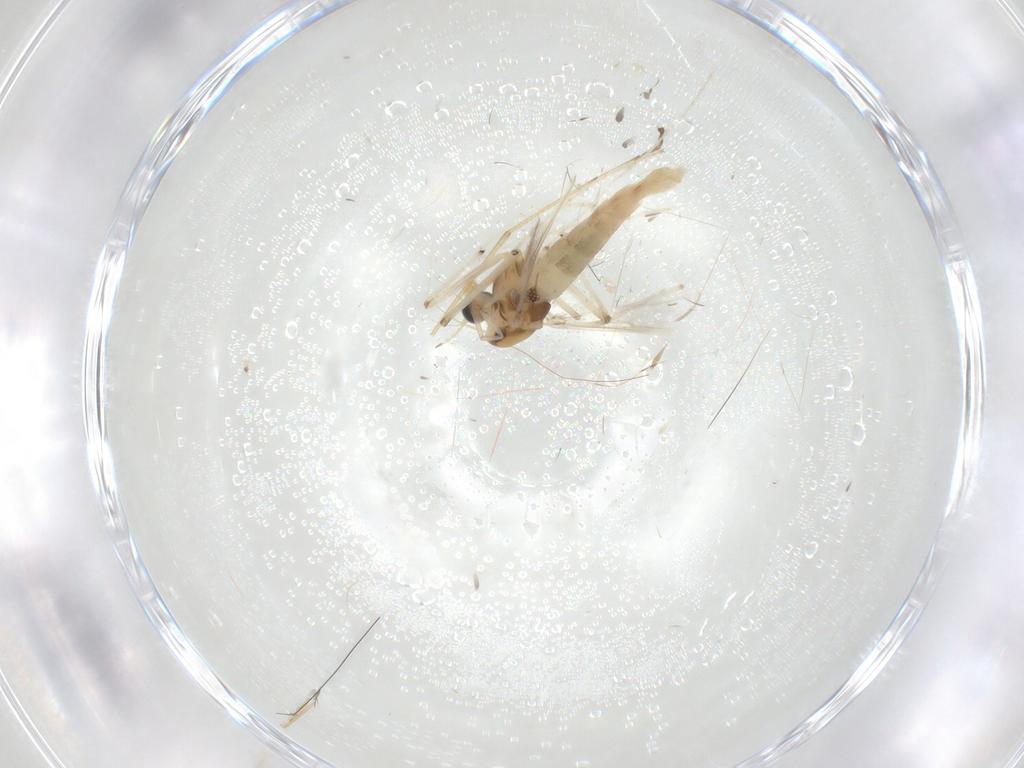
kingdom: Animalia
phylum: Arthropoda
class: Insecta
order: Diptera
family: Chironomidae
